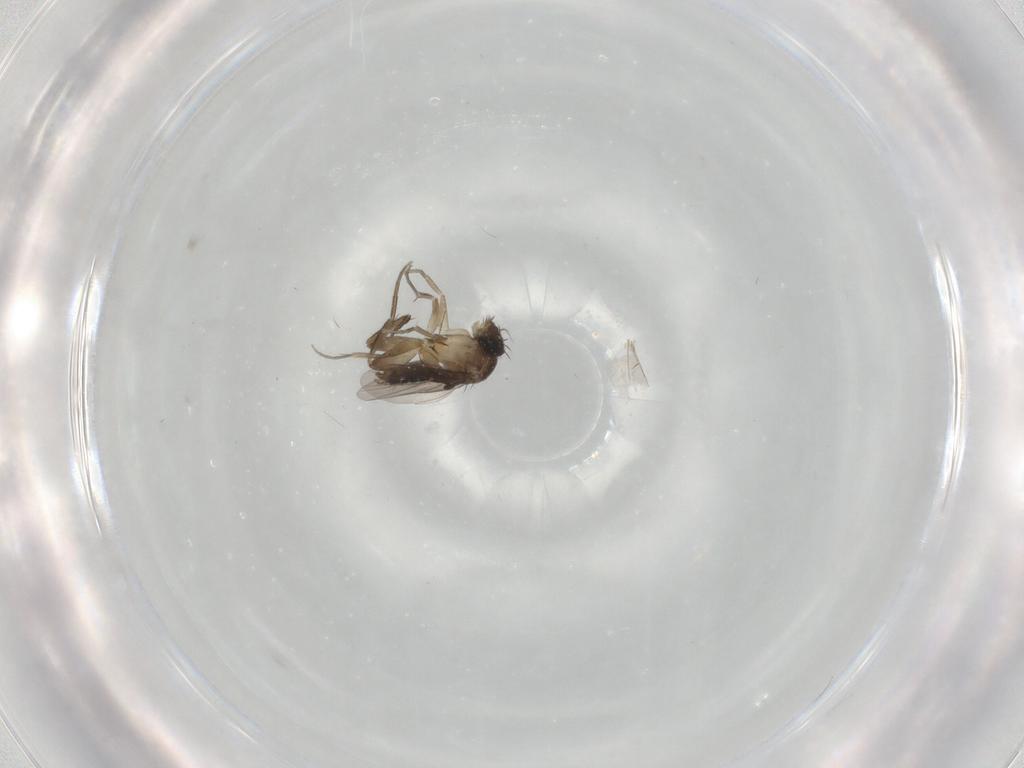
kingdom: Animalia
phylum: Arthropoda
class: Insecta
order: Diptera
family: Phoridae
